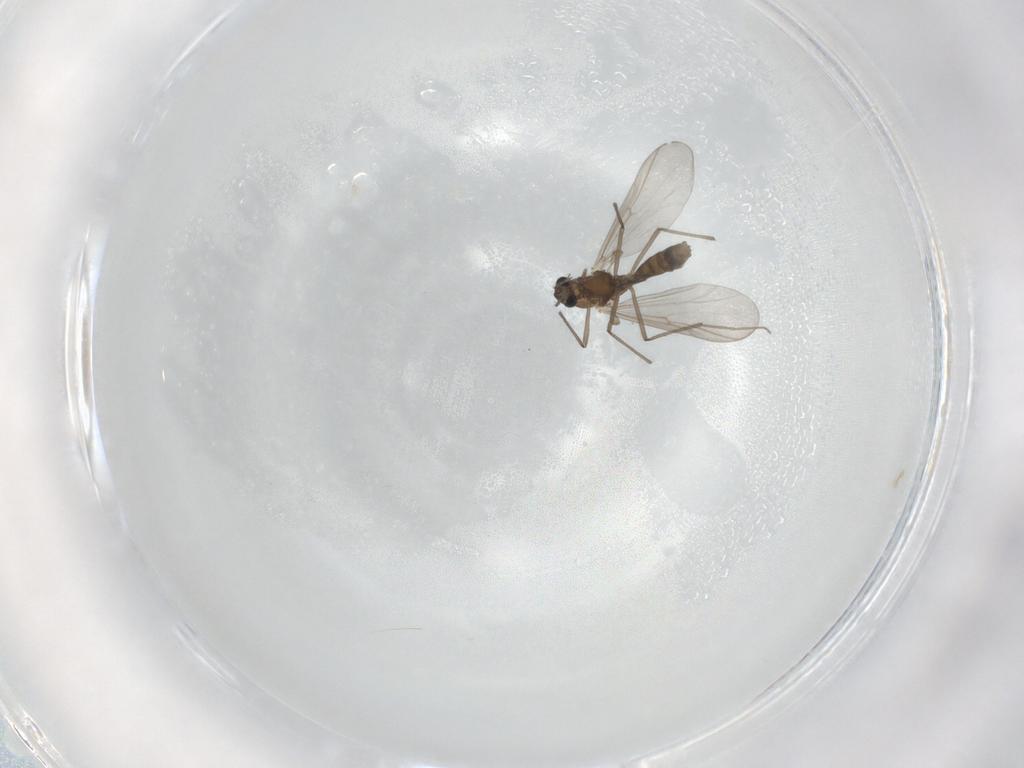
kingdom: Animalia
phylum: Arthropoda
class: Insecta
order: Diptera
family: Chironomidae
